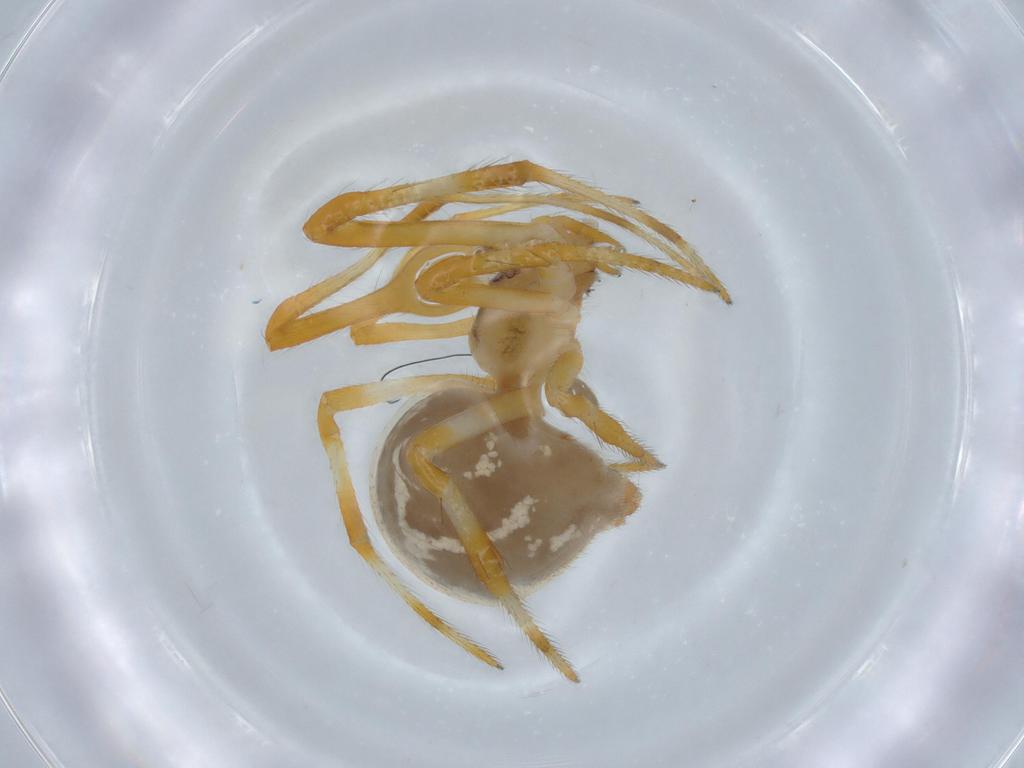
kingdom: Animalia
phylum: Arthropoda
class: Arachnida
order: Araneae
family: Theridiidae
